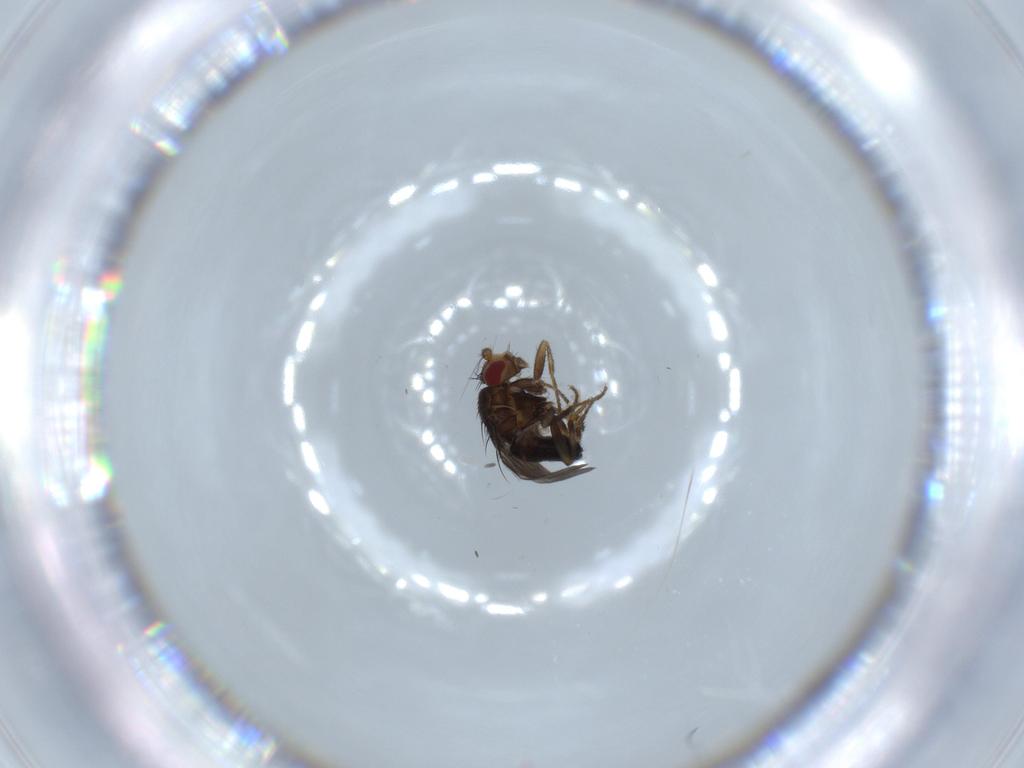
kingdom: Animalia
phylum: Arthropoda
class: Insecta
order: Diptera
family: Sphaeroceridae
